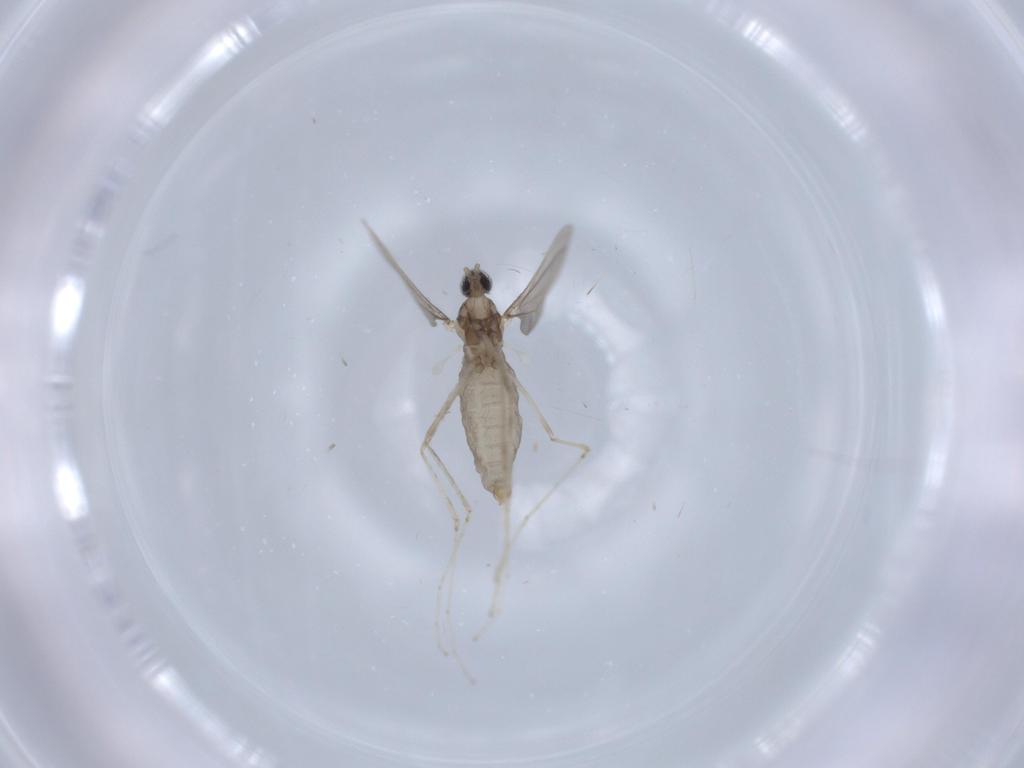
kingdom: Animalia
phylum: Arthropoda
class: Insecta
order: Diptera
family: Cecidomyiidae
